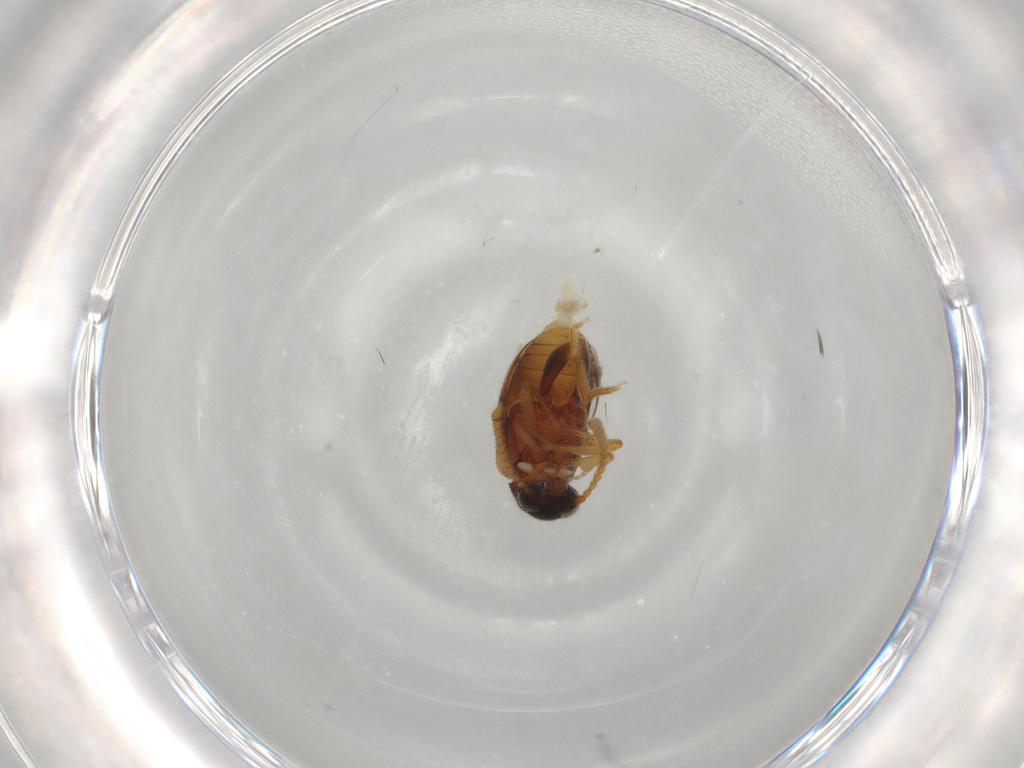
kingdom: Animalia
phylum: Arthropoda
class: Insecta
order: Coleoptera
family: Aderidae
